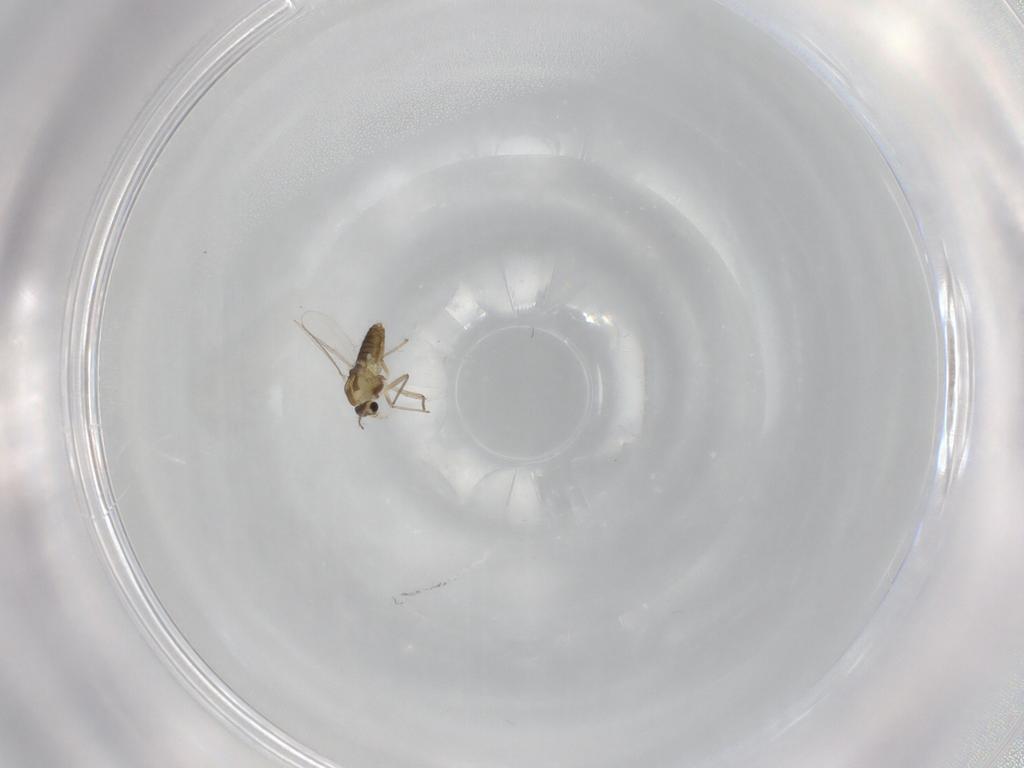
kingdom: Animalia
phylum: Arthropoda
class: Insecta
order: Diptera
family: Chironomidae
